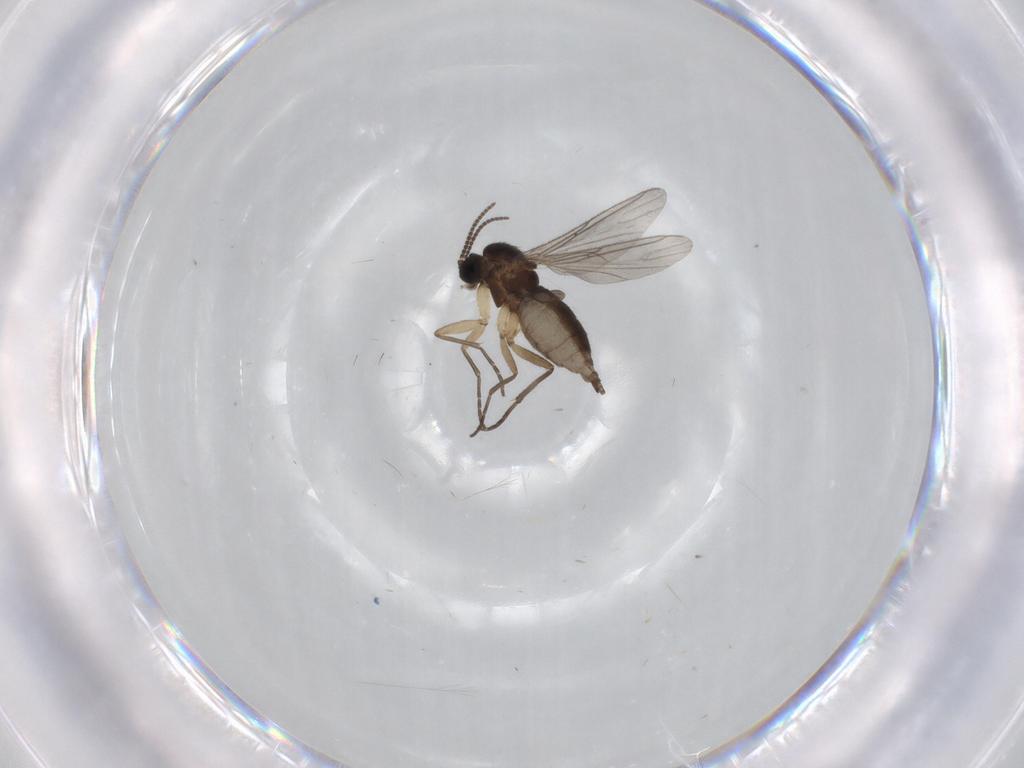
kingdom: Animalia
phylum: Arthropoda
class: Insecta
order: Diptera
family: Sciaridae
